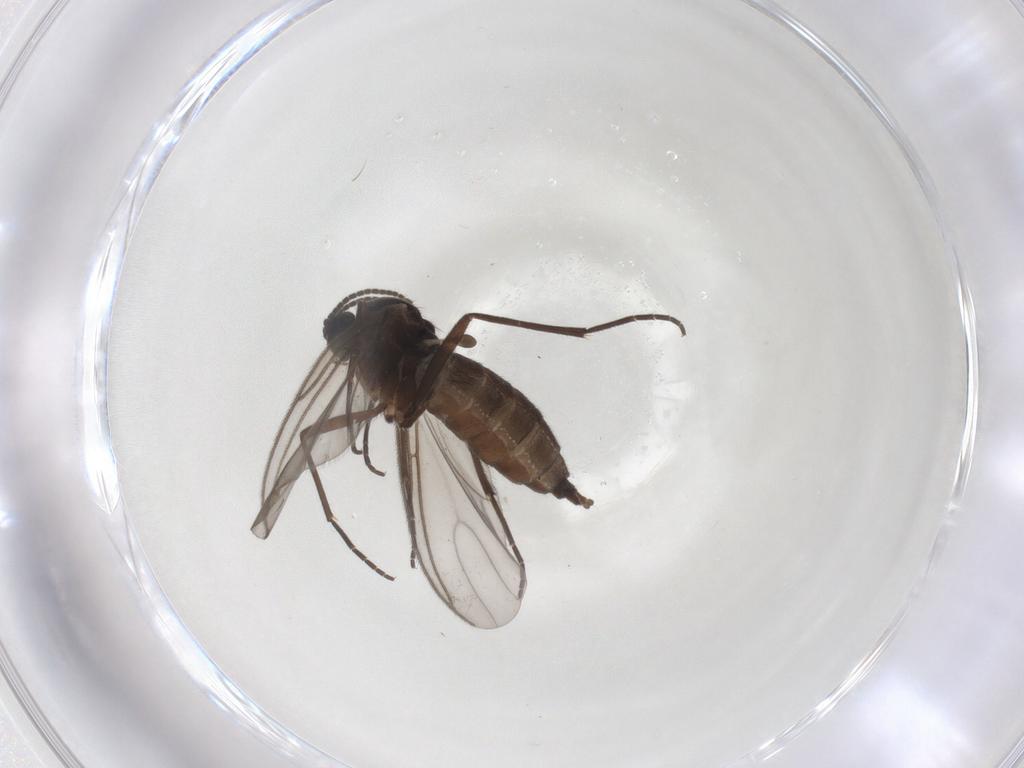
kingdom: Animalia
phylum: Arthropoda
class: Insecta
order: Diptera
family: Sciaridae
